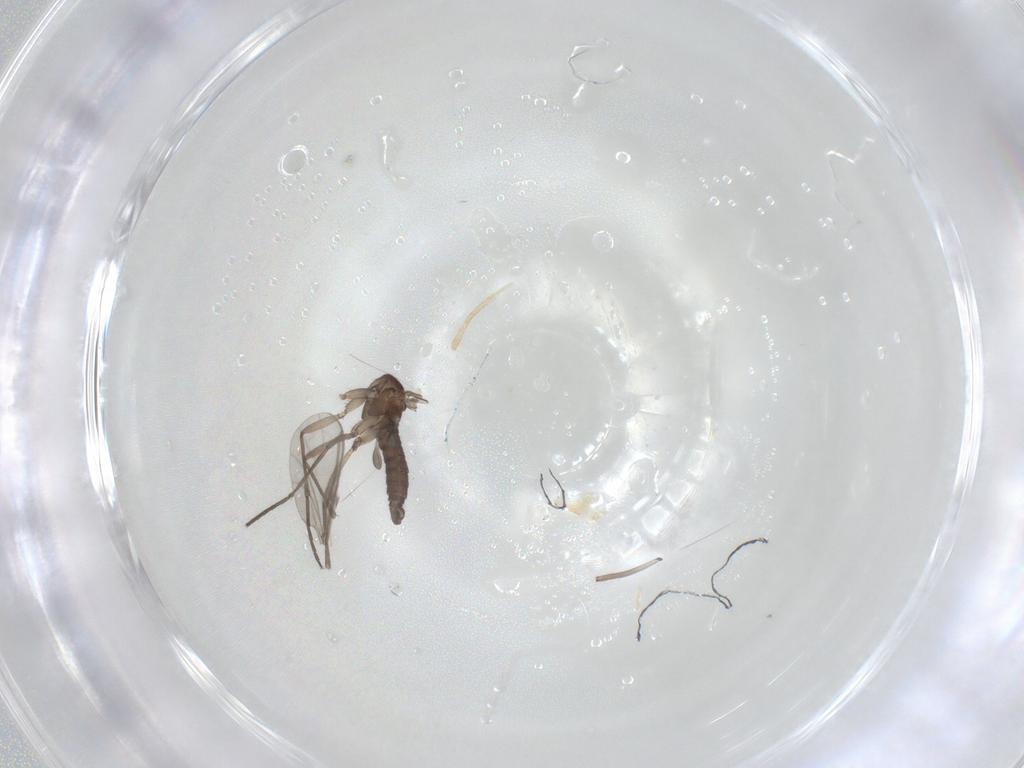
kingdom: Animalia
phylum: Arthropoda
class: Insecta
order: Diptera
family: Sciaridae
